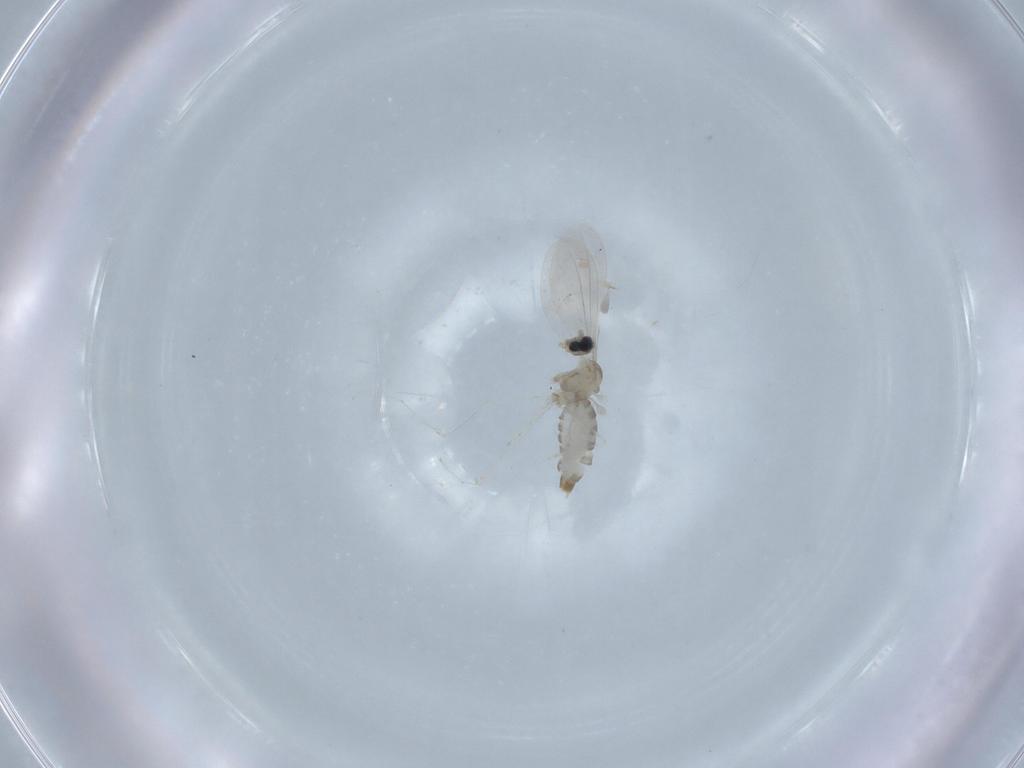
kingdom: Animalia
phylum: Arthropoda
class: Insecta
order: Diptera
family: Psychodidae
